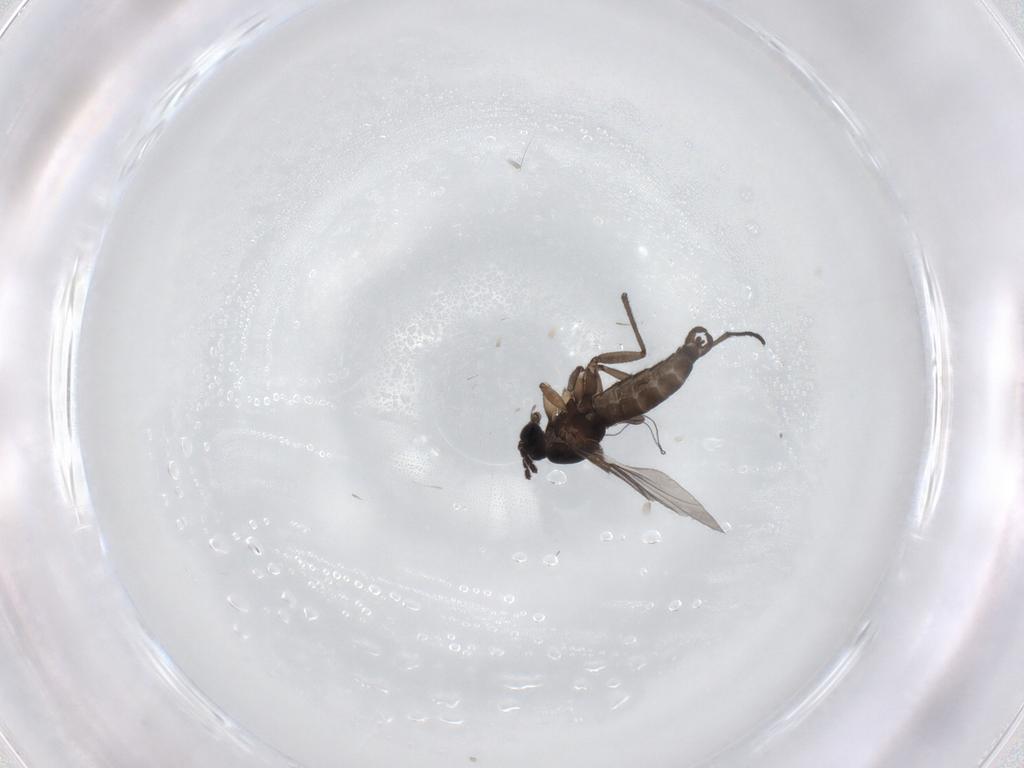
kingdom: Animalia
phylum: Arthropoda
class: Insecta
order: Diptera
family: Sciaridae
